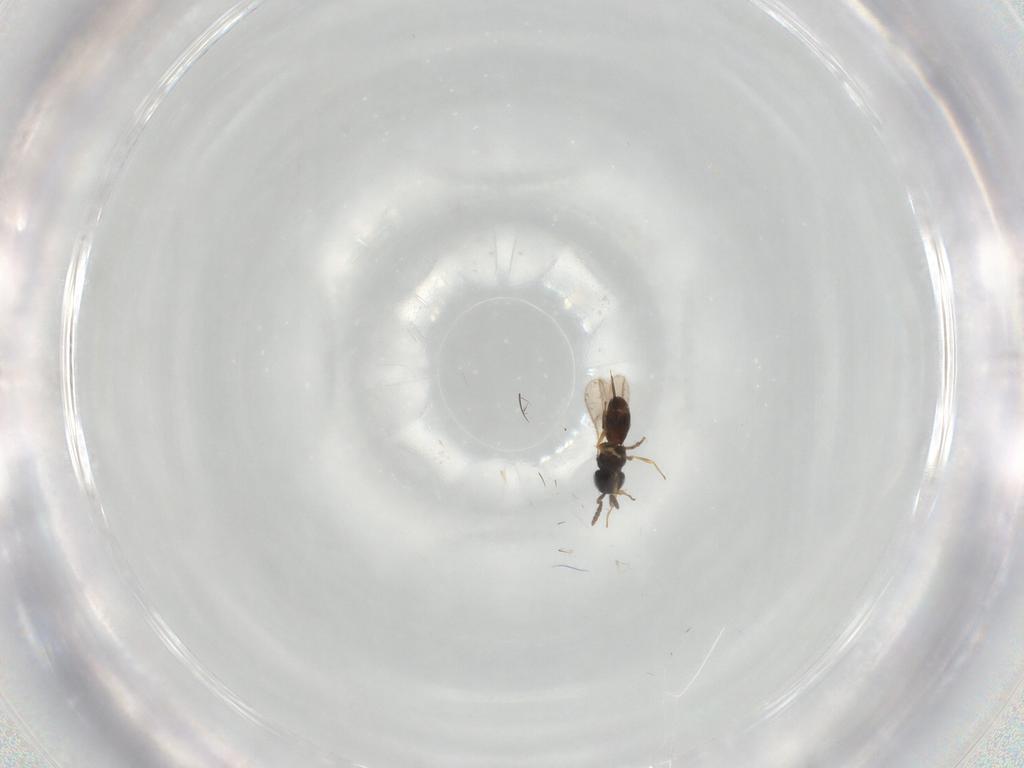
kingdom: Animalia
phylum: Arthropoda
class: Insecta
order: Hymenoptera
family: Scelionidae
